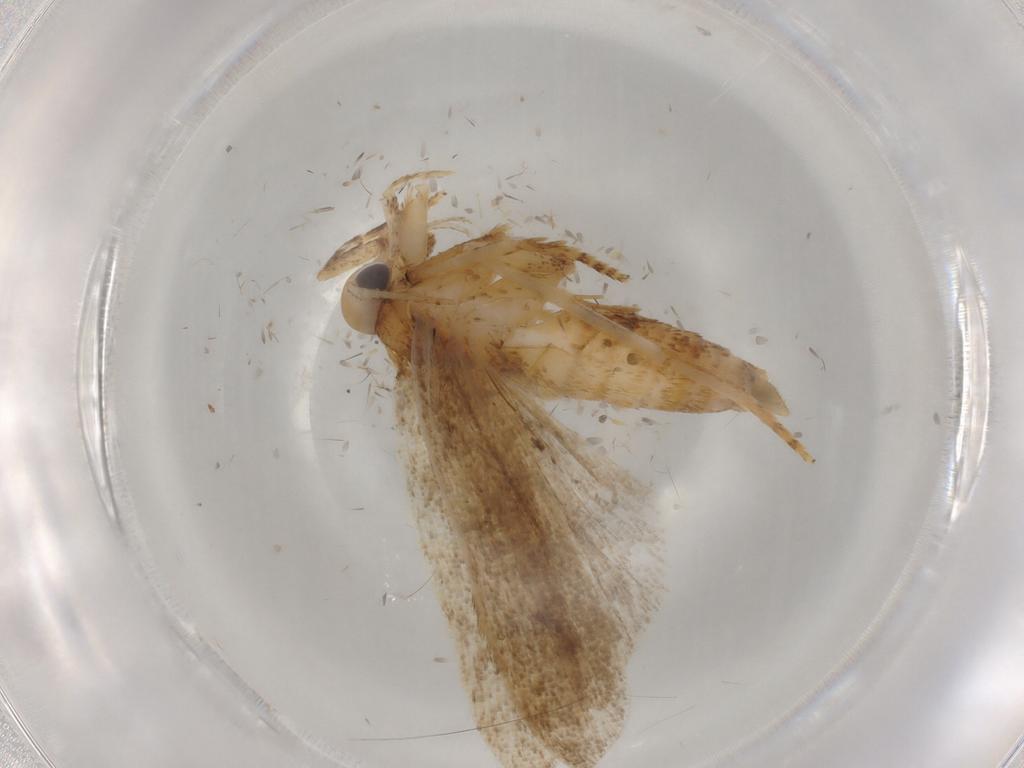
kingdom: Animalia
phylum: Arthropoda
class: Insecta
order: Lepidoptera
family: Autostichidae
